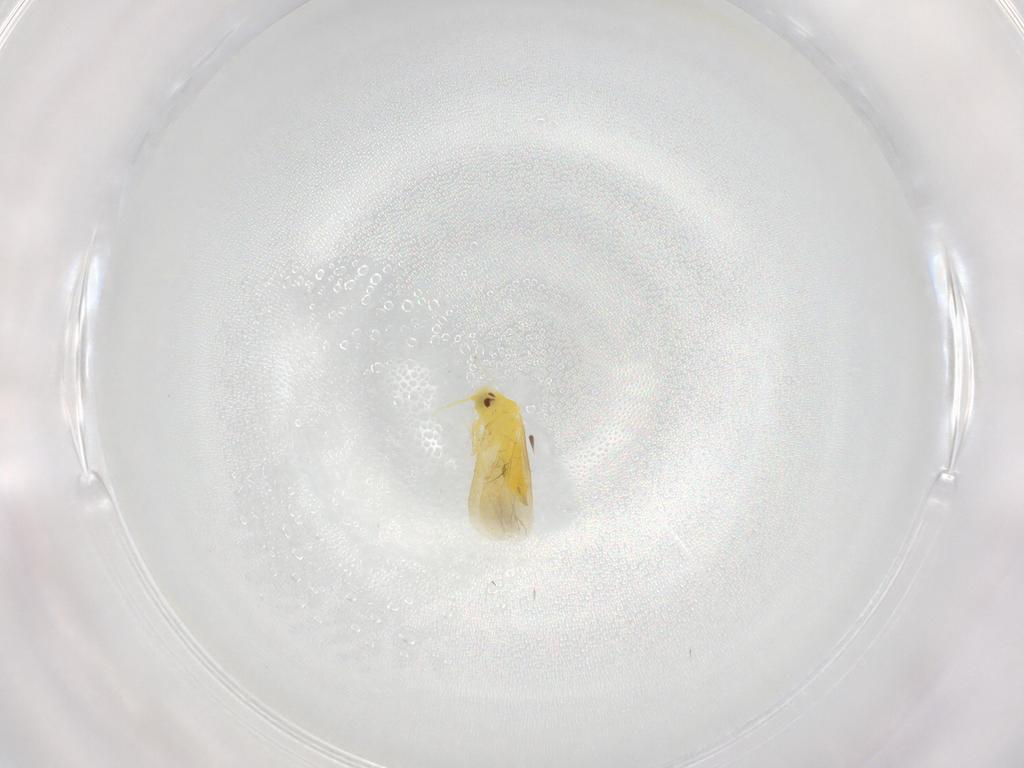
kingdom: Animalia
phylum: Arthropoda
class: Insecta
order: Hemiptera
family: Aleyrodidae
